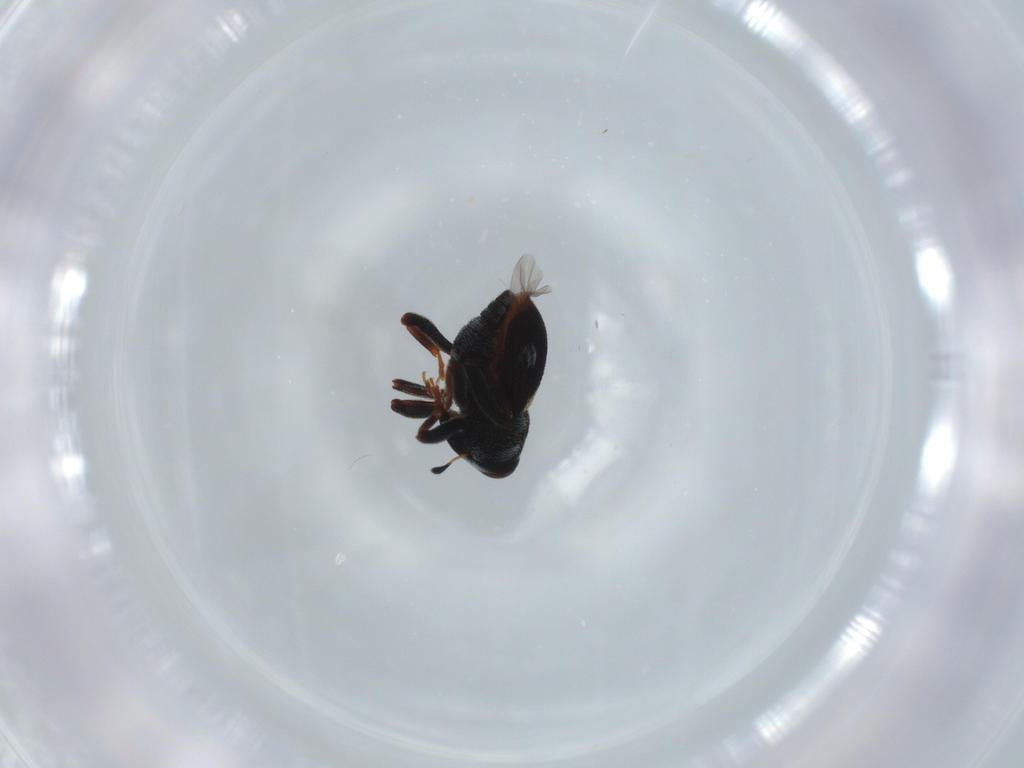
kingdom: Animalia
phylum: Arthropoda
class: Insecta
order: Coleoptera
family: Curculionidae
